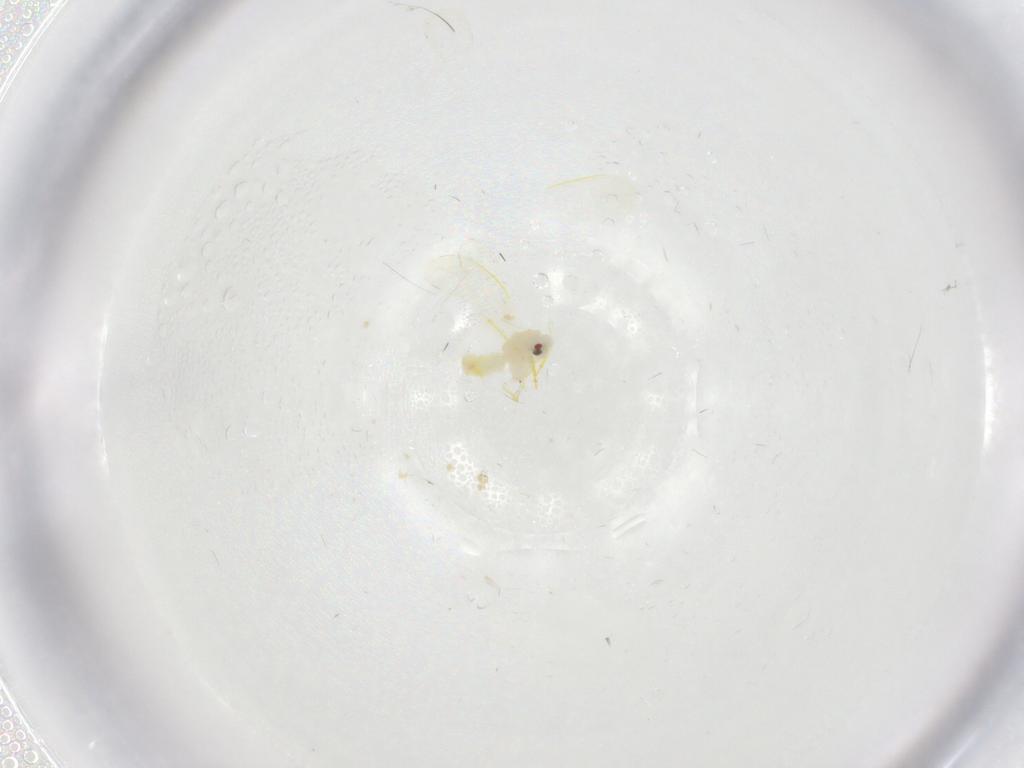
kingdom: Animalia
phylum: Arthropoda
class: Insecta
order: Hemiptera
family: Aleyrodidae
